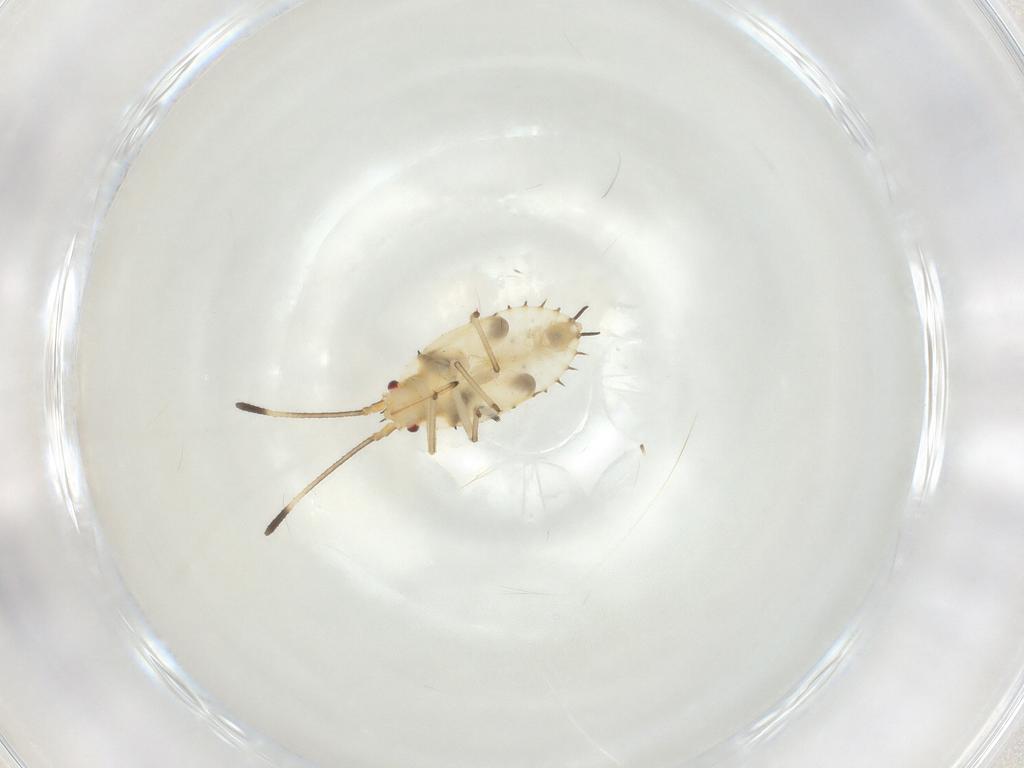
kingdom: Animalia
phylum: Arthropoda
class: Insecta
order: Hemiptera
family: Tingidae
